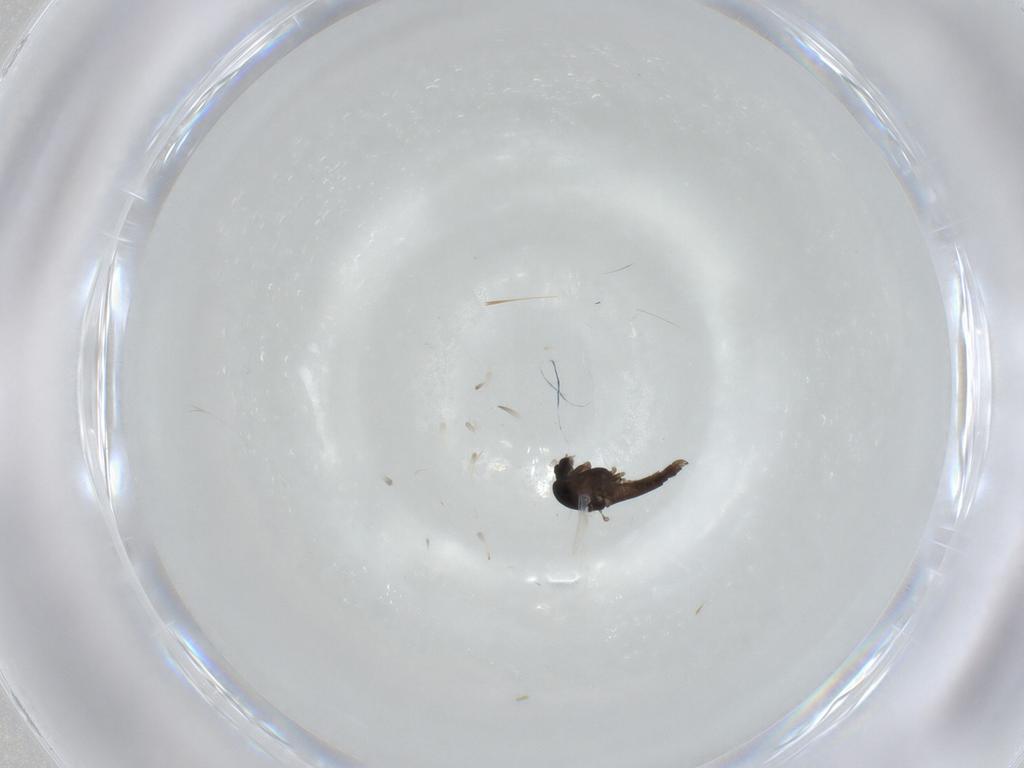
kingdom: Animalia
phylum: Arthropoda
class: Insecta
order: Diptera
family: Chironomidae
